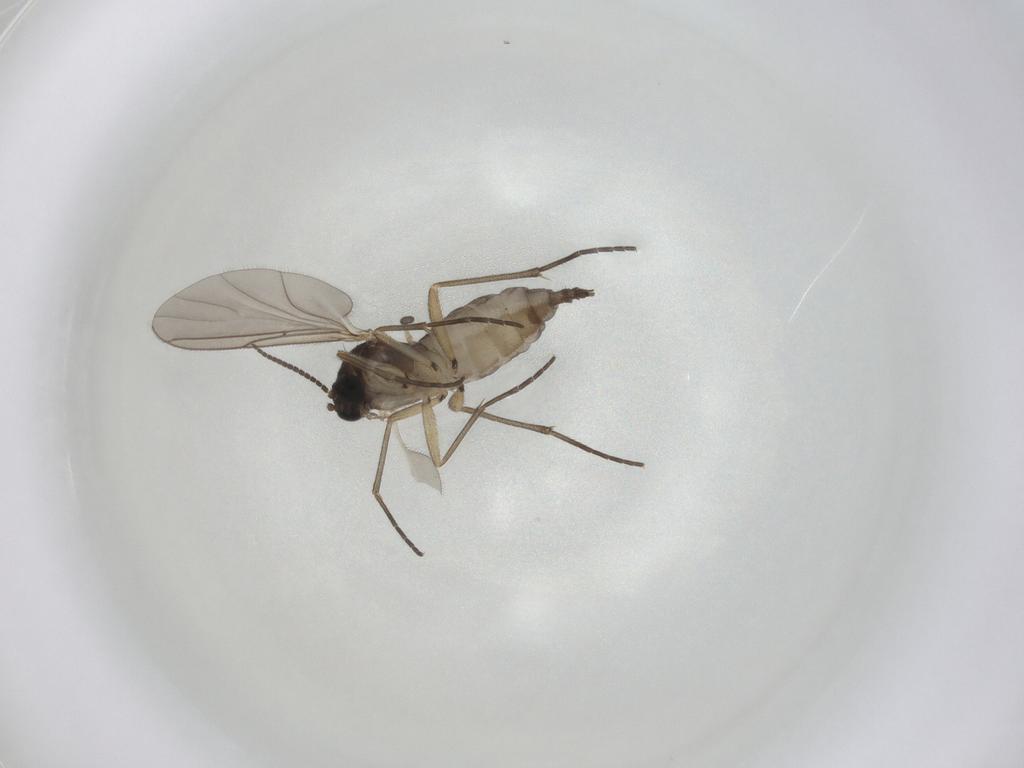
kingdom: Animalia
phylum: Arthropoda
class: Insecta
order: Diptera
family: Sciaridae
